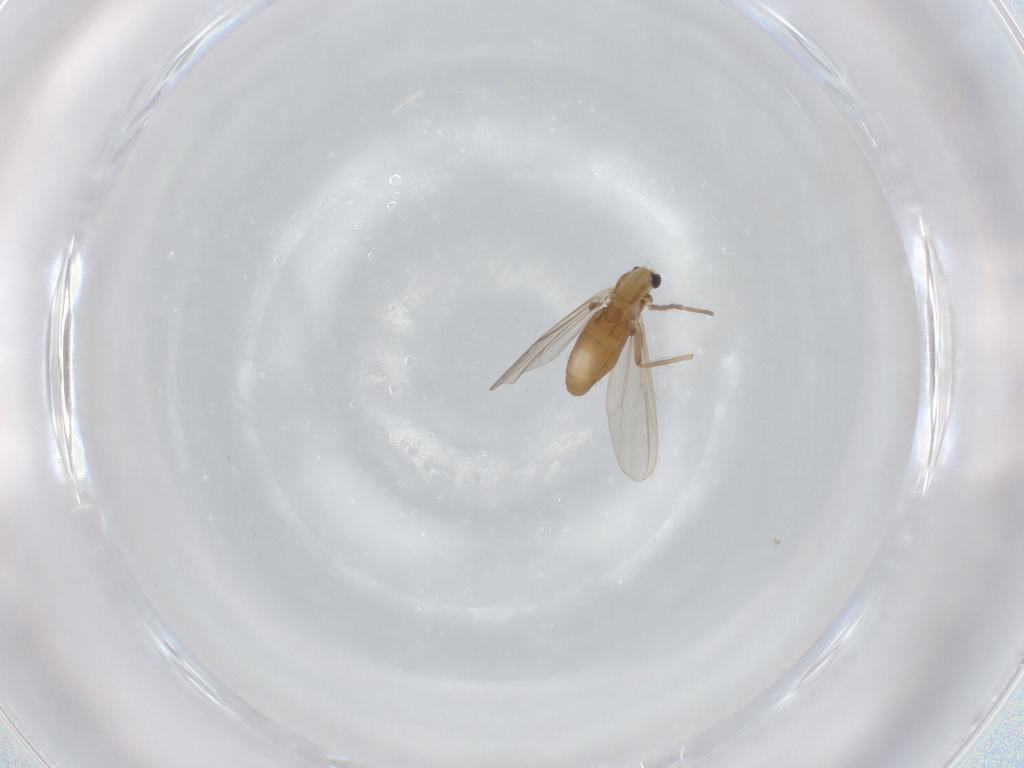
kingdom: Animalia
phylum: Arthropoda
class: Insecta
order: Diptera
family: Chironomidae
